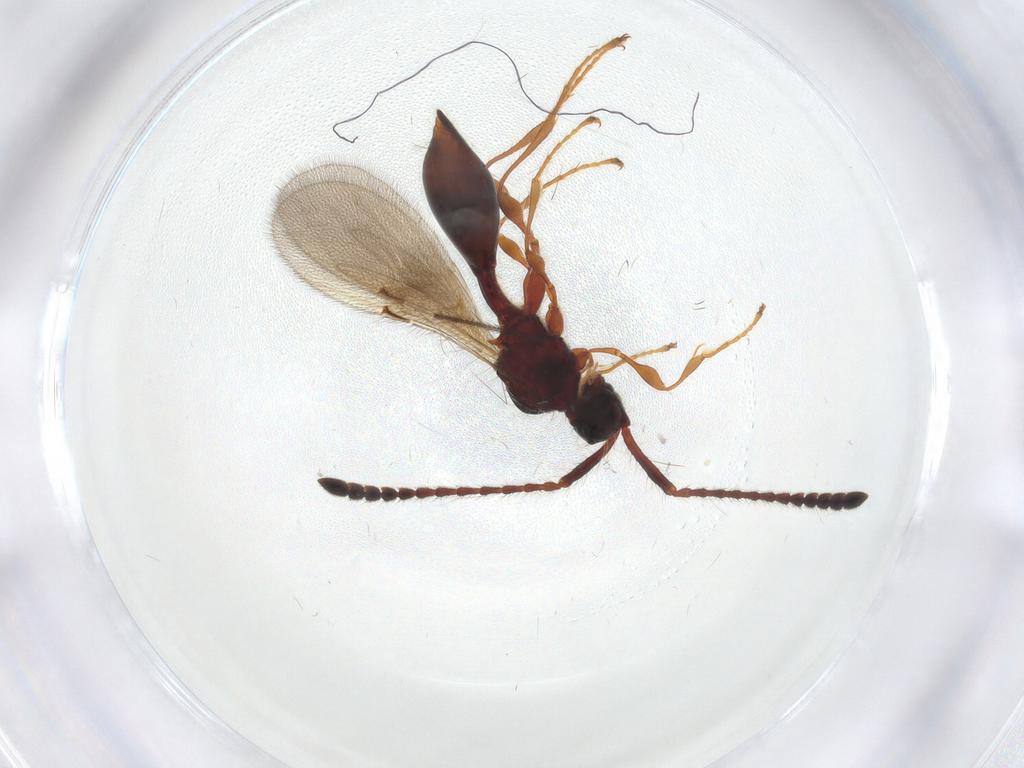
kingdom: Animalia
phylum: Arthropoda
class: Insecta
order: Hymenoptera
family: Diapriidae
